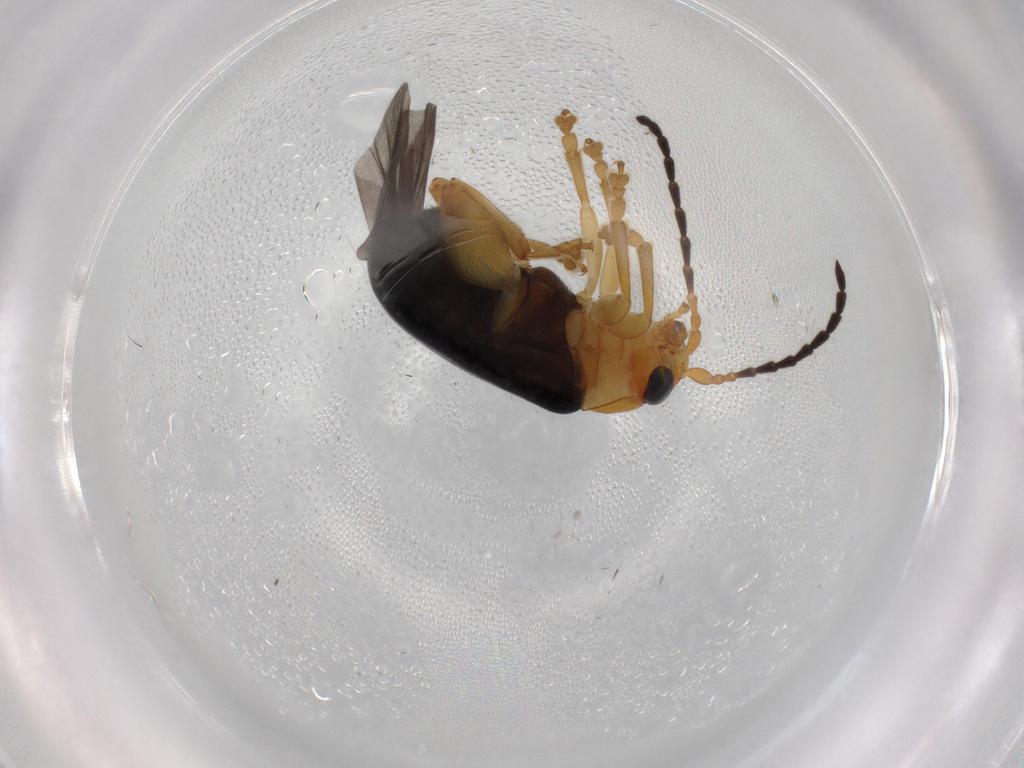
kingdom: Animalia
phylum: Arthropoda
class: Insecta
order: Coleoptera
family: Chrysomelidae
